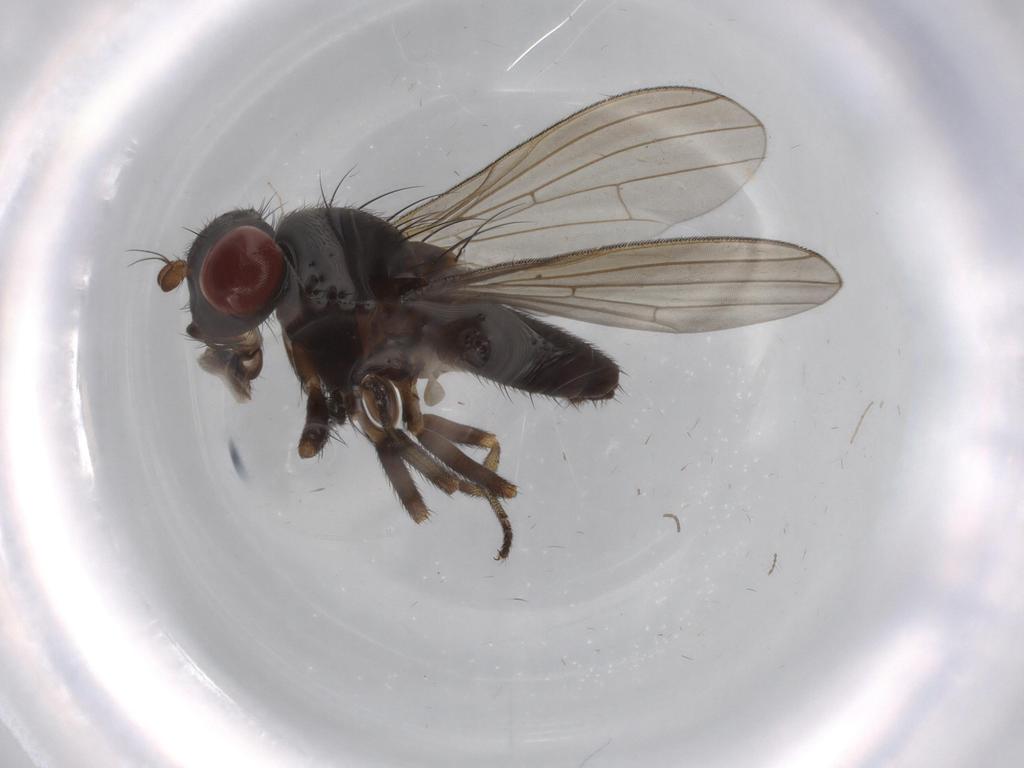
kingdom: Animalia
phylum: Arthropoda
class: Insecta
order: Diptera
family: Lauxaniidae
